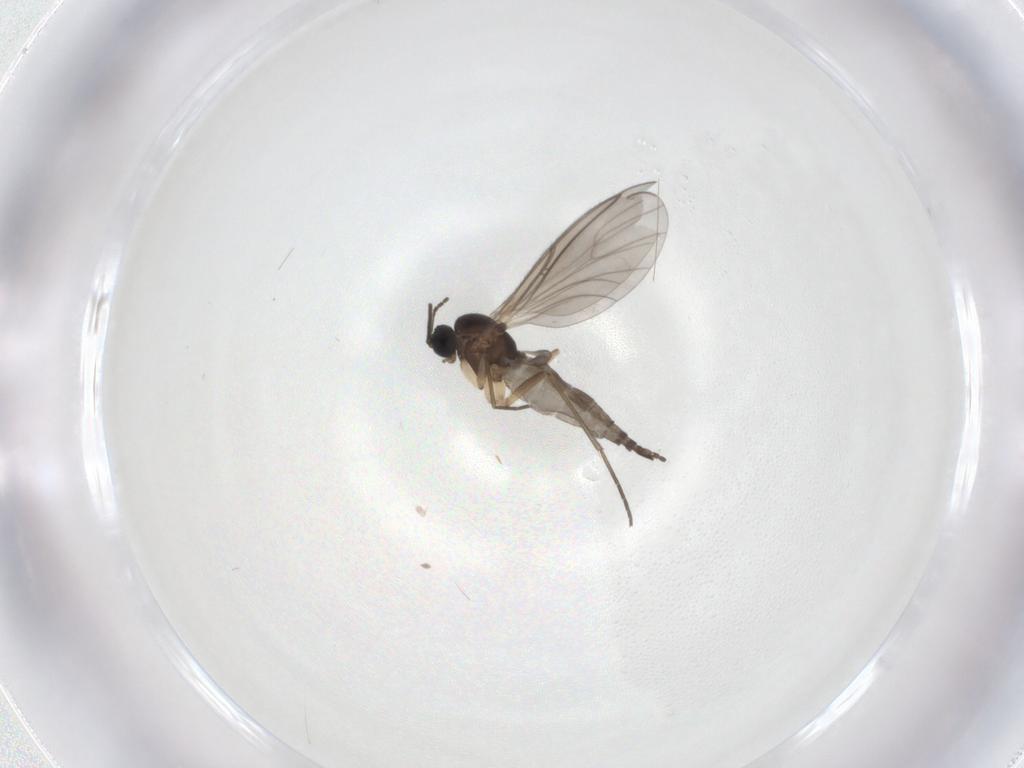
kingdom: Animalia
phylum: Arthropoda
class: Insecta
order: Diptera
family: Sciaridae
